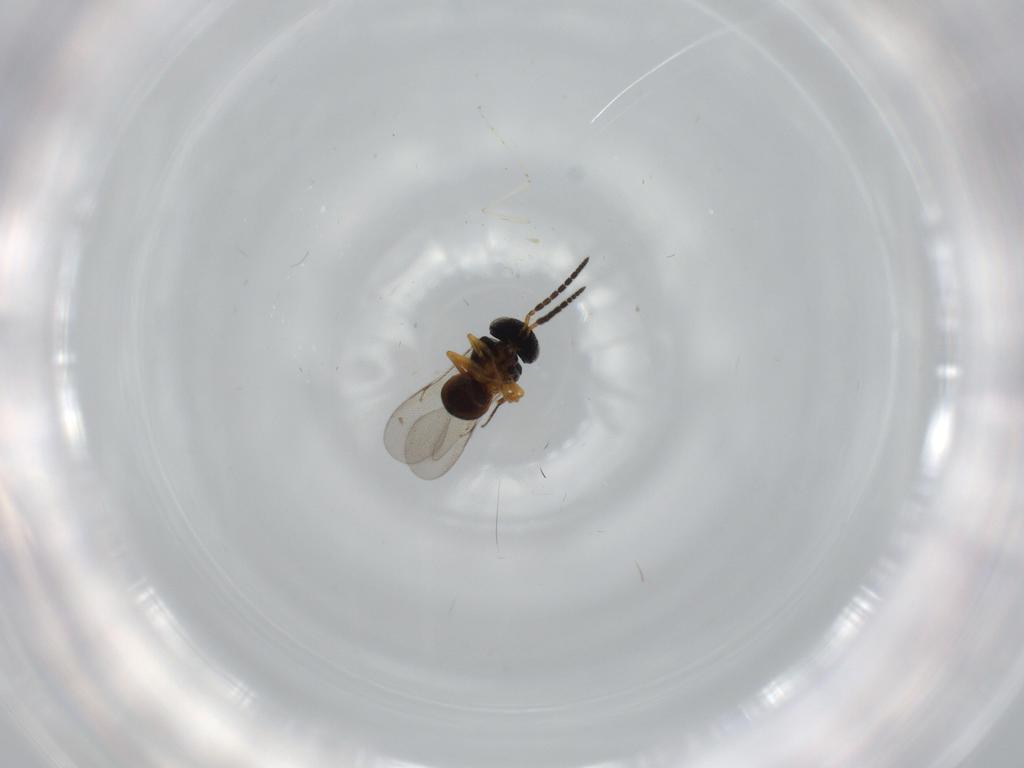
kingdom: Animalia
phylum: Arthropoda
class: Insecta
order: Hymenoptera
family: Scelionidae
